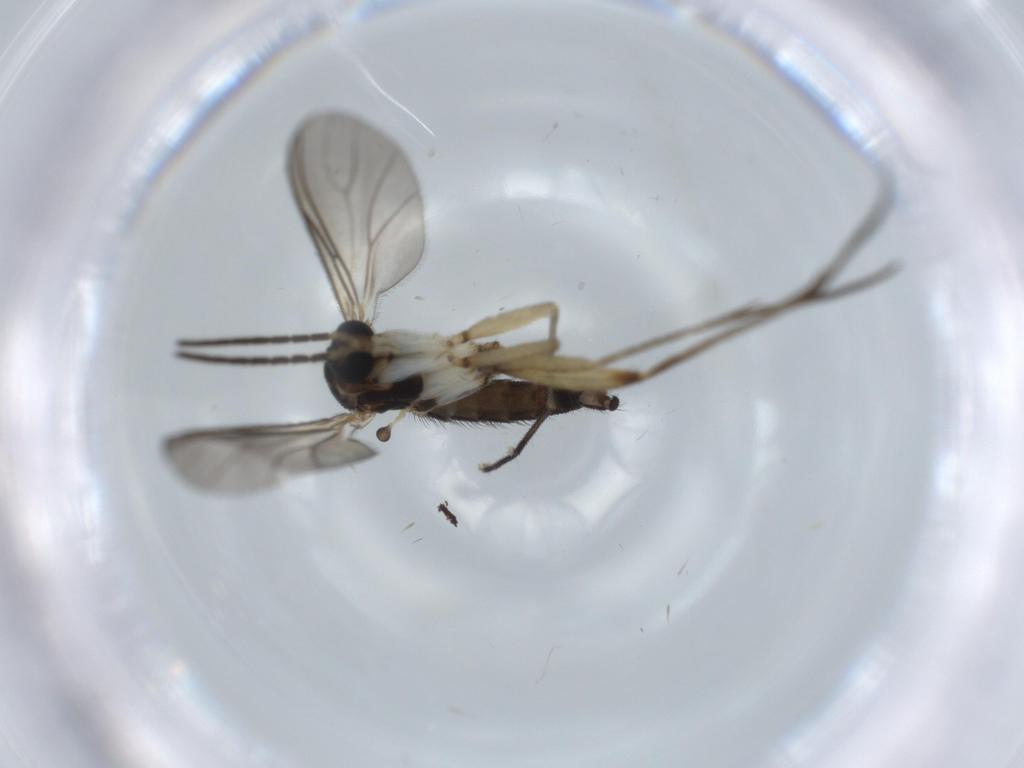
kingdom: Animalia
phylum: Arthropoda
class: Insecta
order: Diptera
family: Sciaridae
